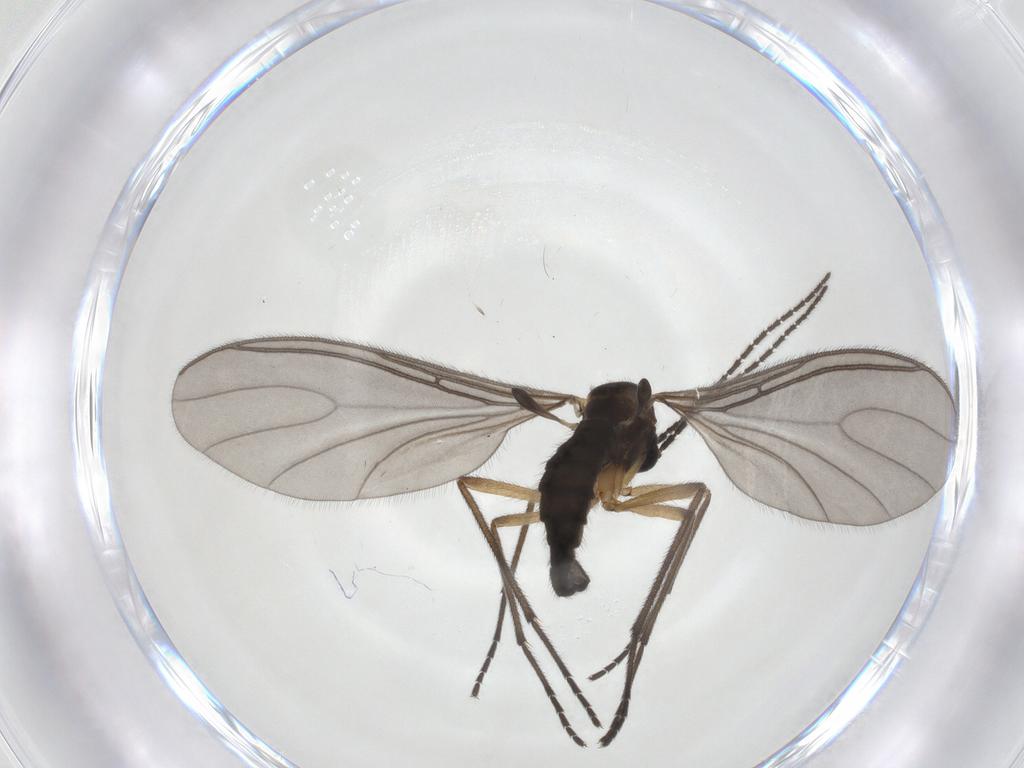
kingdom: Animalia
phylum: Arthropoda
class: Insecta
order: Diptera
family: Sciaridae
